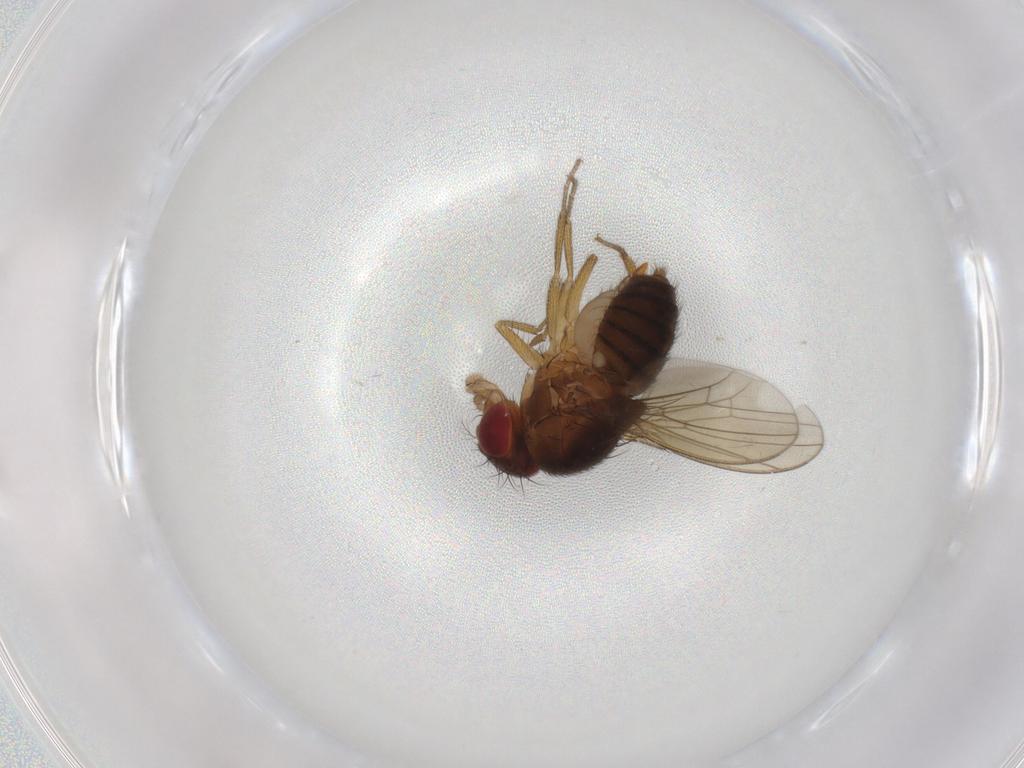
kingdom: Animalia
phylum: Arthropoda
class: Insecta
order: Diptera
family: Drosophilidae
